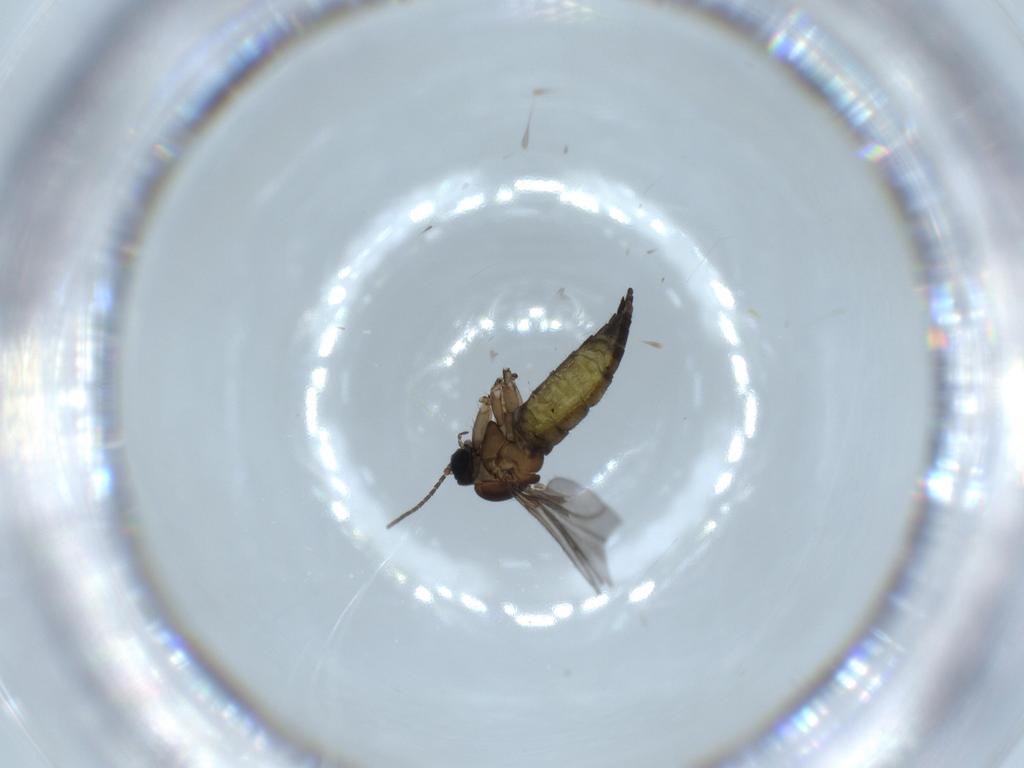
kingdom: Animalia
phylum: Arthropoda
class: Insecta
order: Diptera
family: Sciaridae
